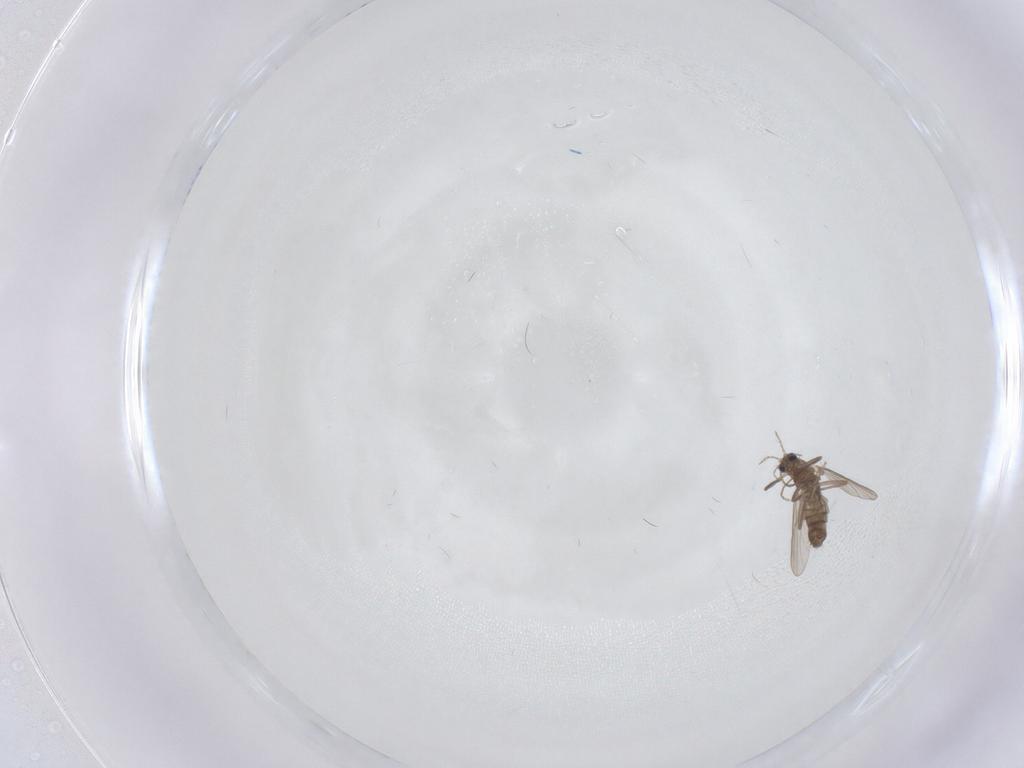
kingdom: Animalia
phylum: Arthropoda
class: Insecta
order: Diptera
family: Chironomidae
